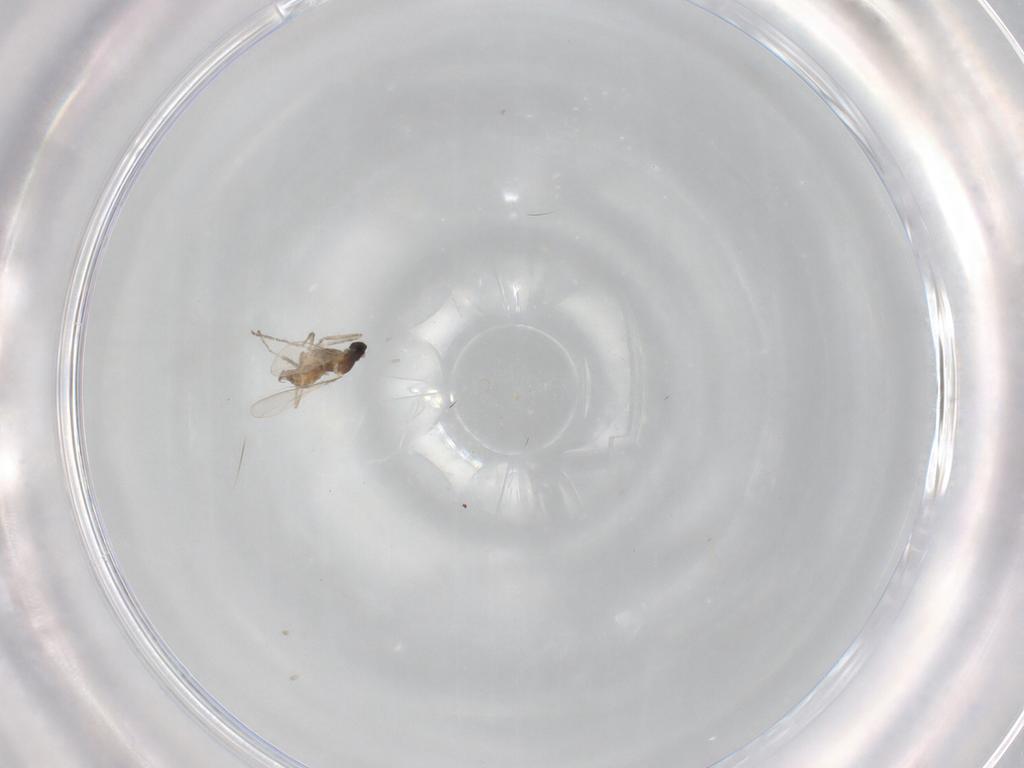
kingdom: Animalia
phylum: Arthropoda
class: Insecta
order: Diptera
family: Cecidomyiidae
